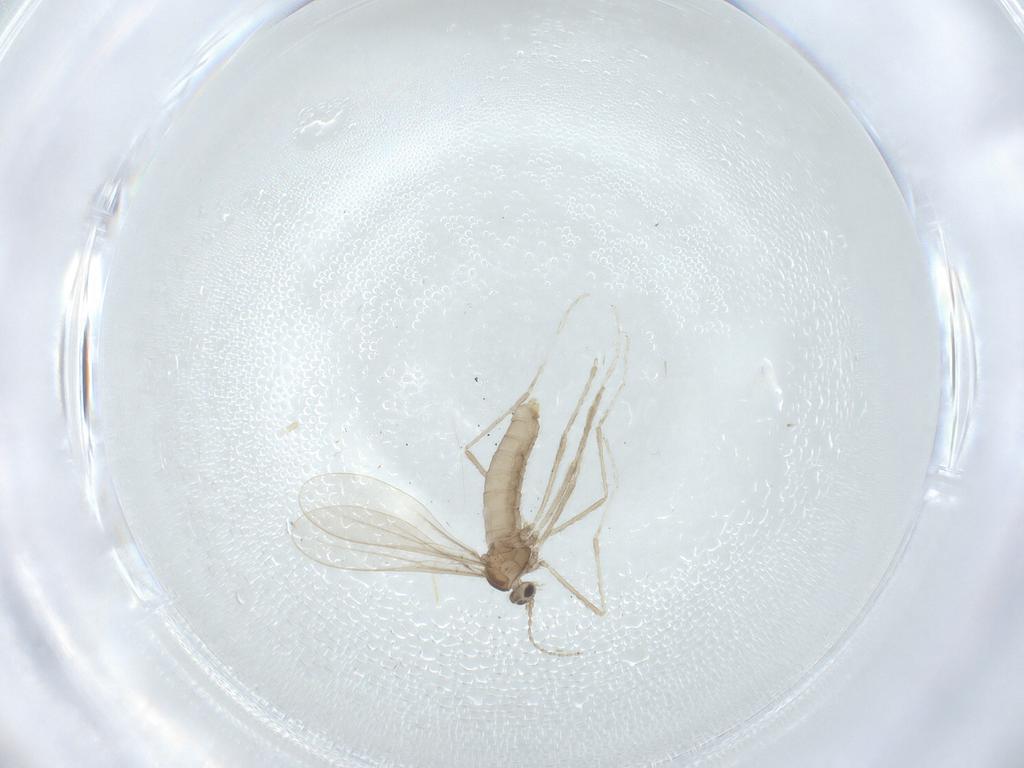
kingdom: Animalia
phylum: Arthropoda
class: Insecta
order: Diptera
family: Cecidomyiidae
